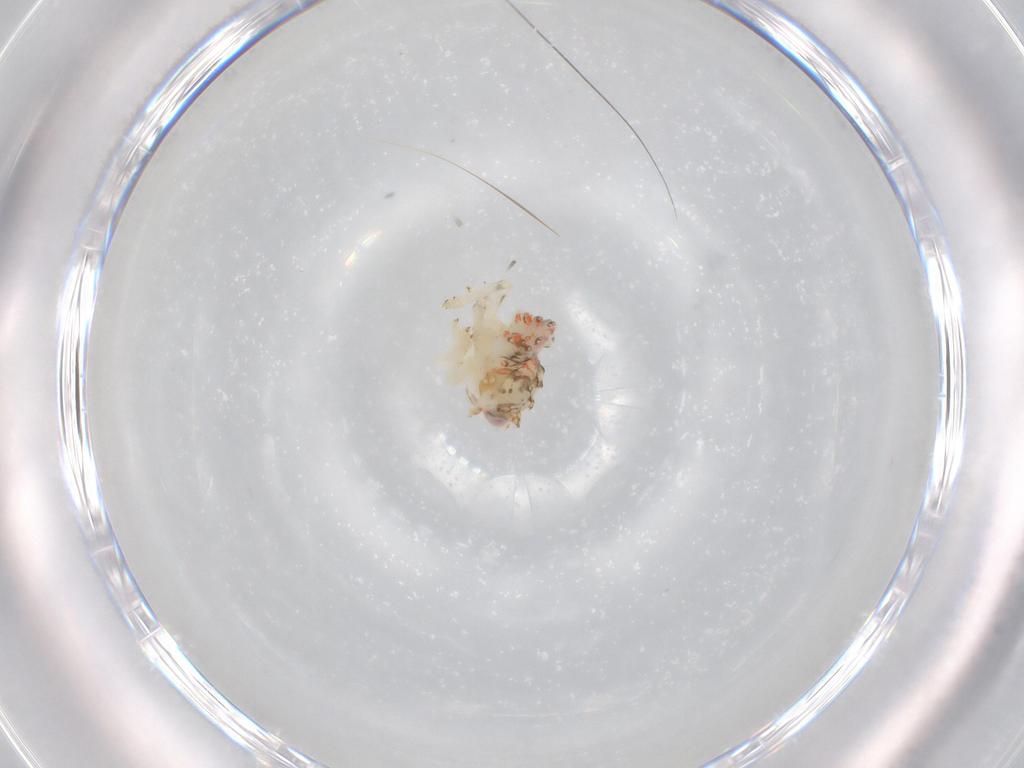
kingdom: Animalia
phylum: Arthropoda
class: Insecta
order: Hemiptera
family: Nogodinidae
